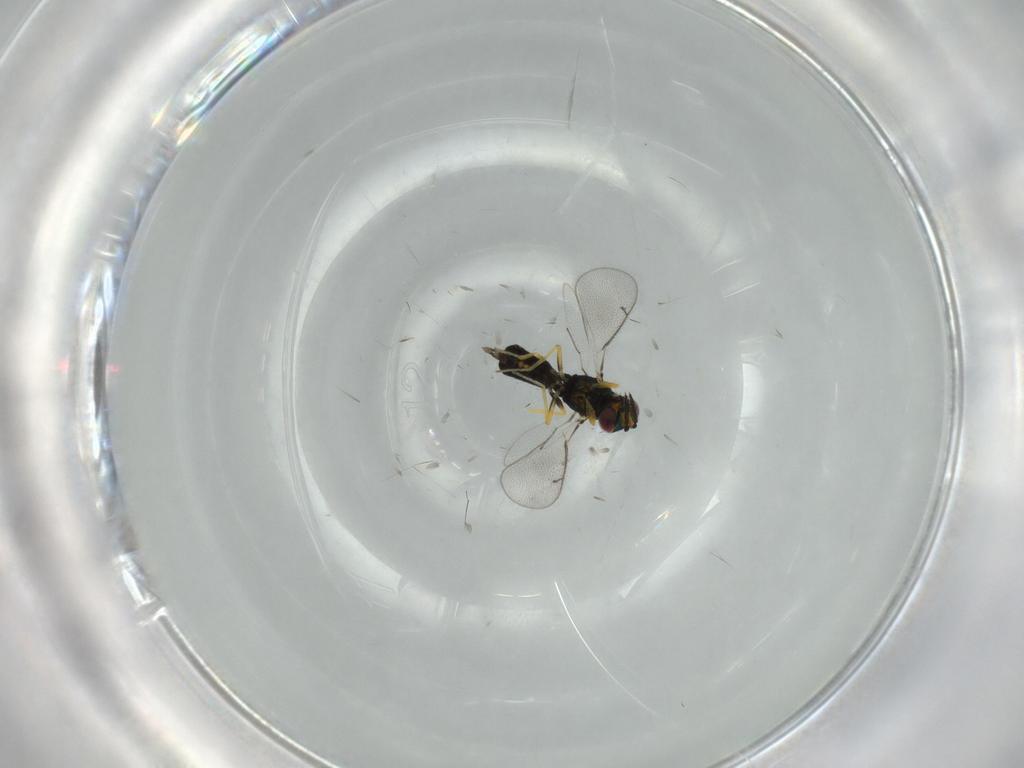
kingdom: Animalia
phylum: Arthropoda
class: Insecta
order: Hymenoptera
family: Eulophidae
